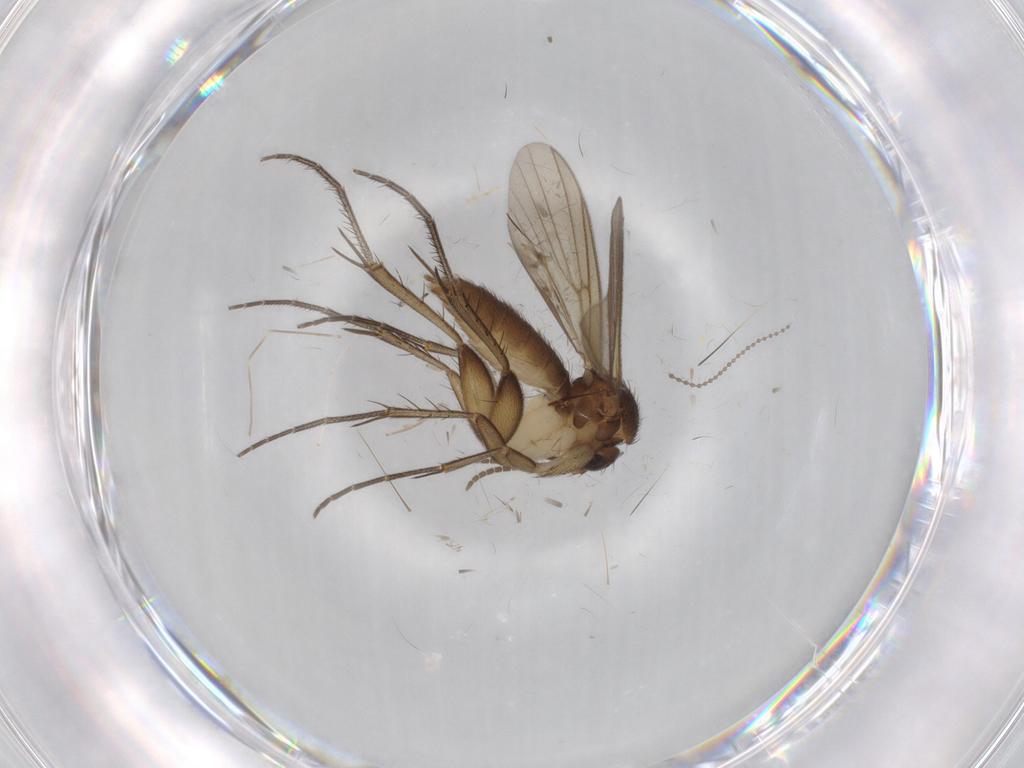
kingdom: Animalia
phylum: Arthropoda
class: Insecta
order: Diptera
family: Cecidomyiidae
